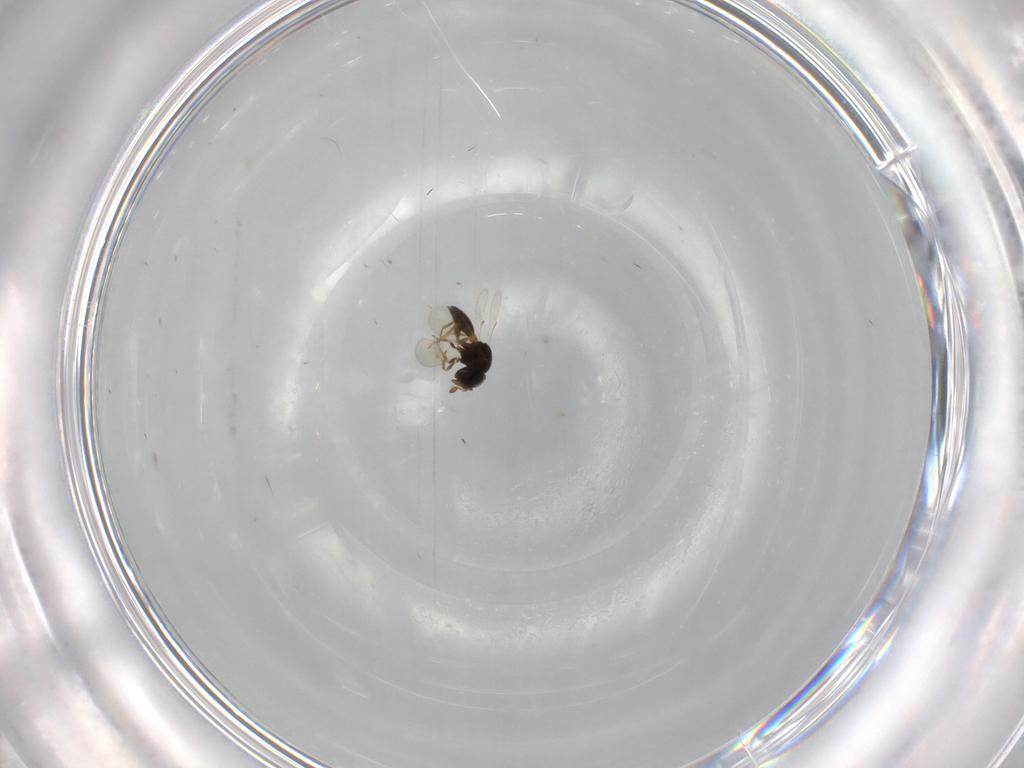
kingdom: Animalia
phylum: Arthropoda
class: Insecta
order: Hymenoptera
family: Scelionidae
